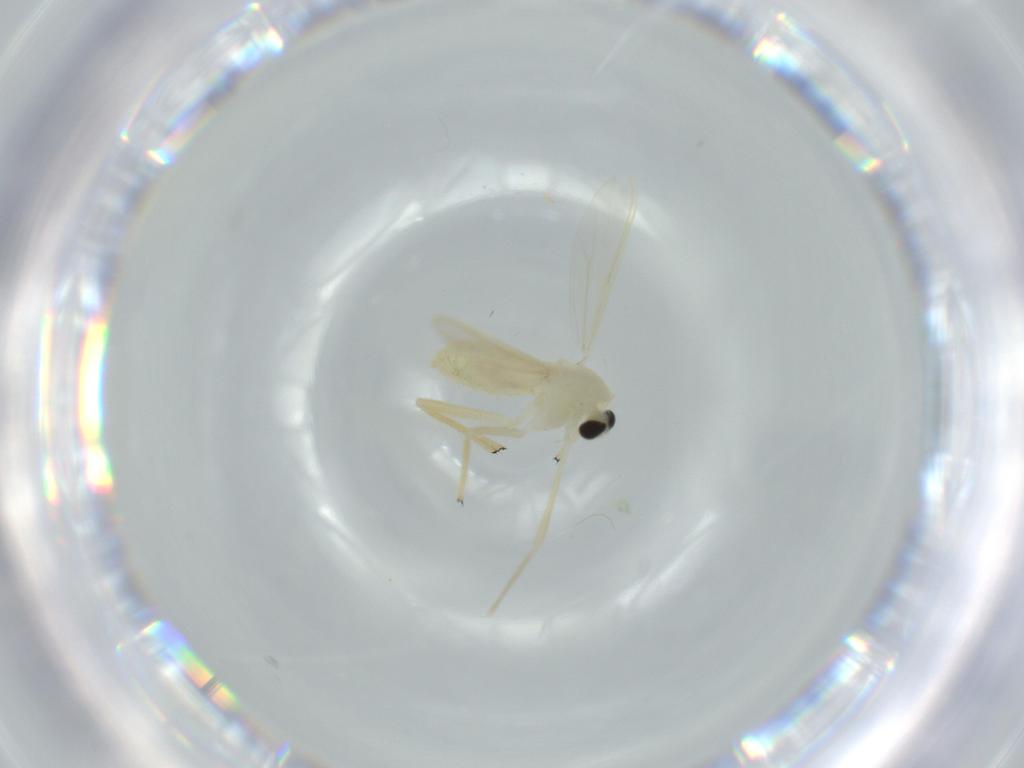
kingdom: Animalia
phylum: Arthropoda
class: Insecta
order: Diptera
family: Chironomidae
